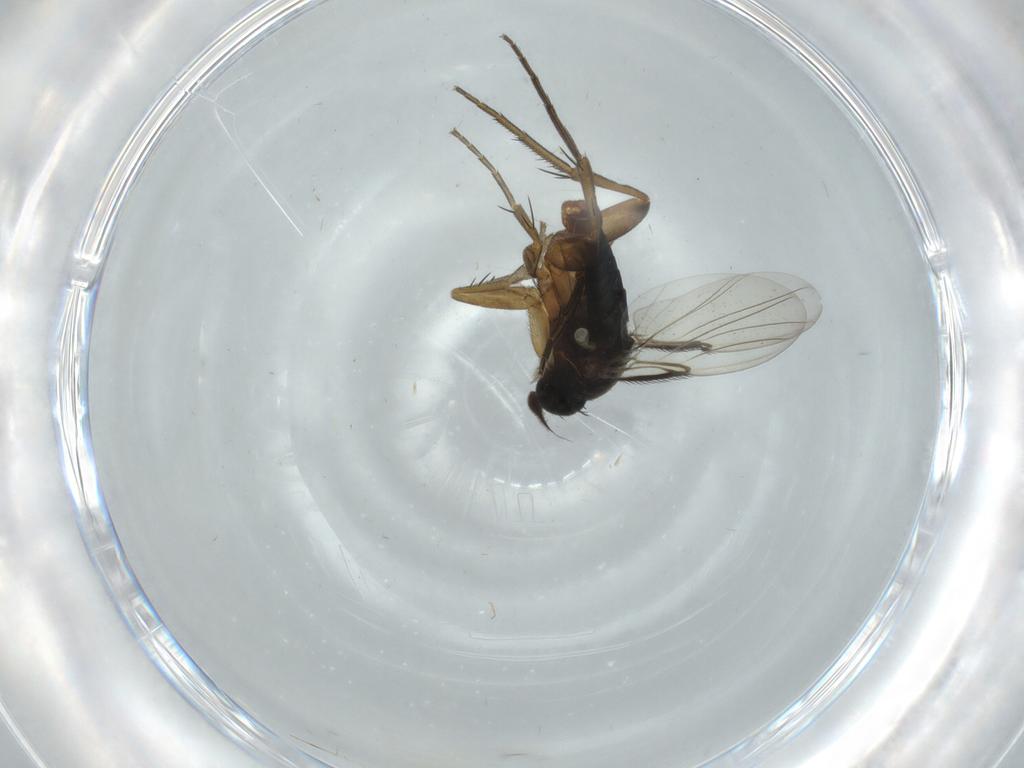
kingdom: Animalia
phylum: Arthropoda
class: Insecta
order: Diptera
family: Phoridae
